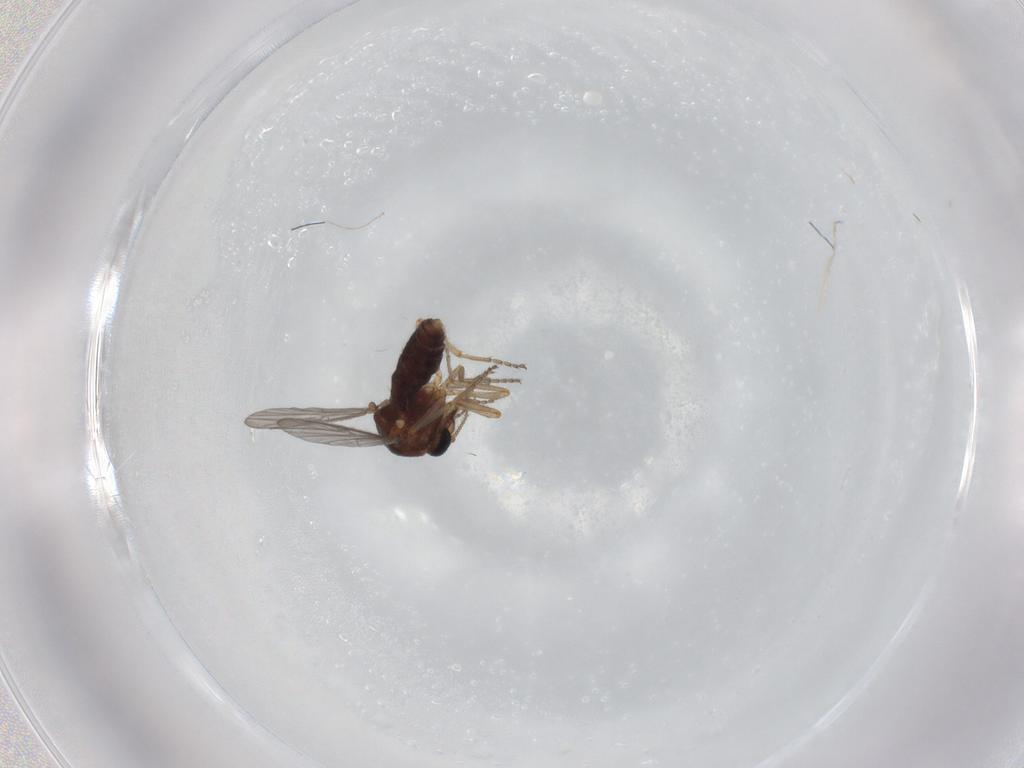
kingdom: Animalia
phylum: Arthropoda
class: Insecta
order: Diptera
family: Ceratopogonidae
